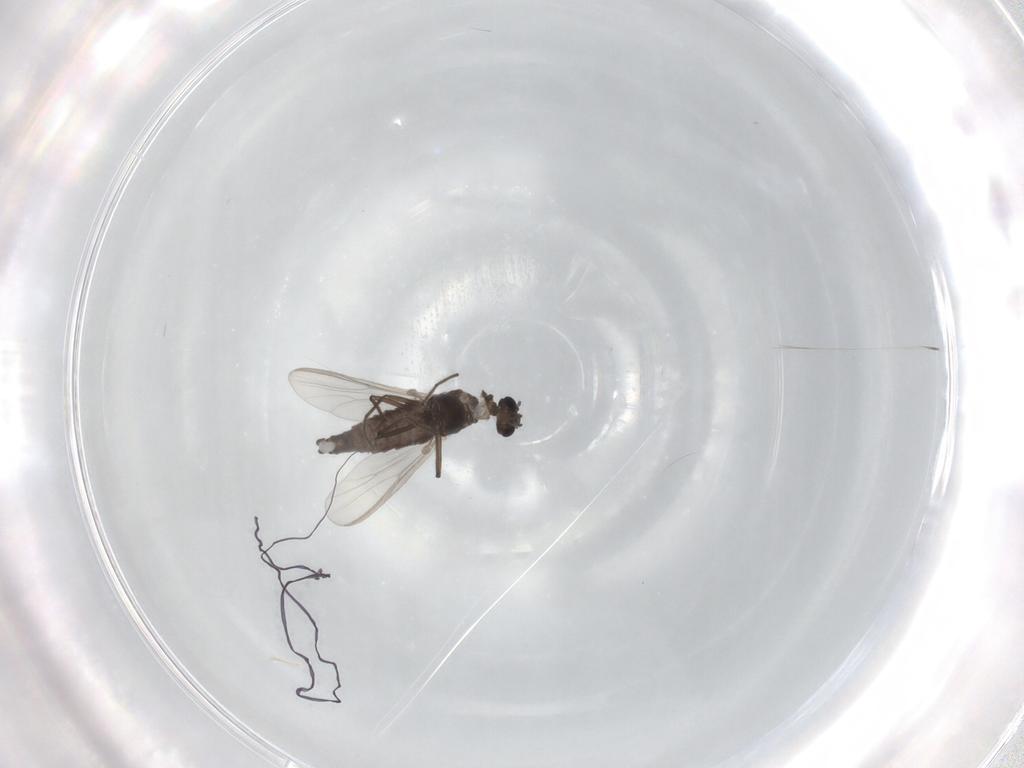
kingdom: Animalia
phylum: Arthropoda
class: Insecta
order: Diptera
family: Chironomidae
